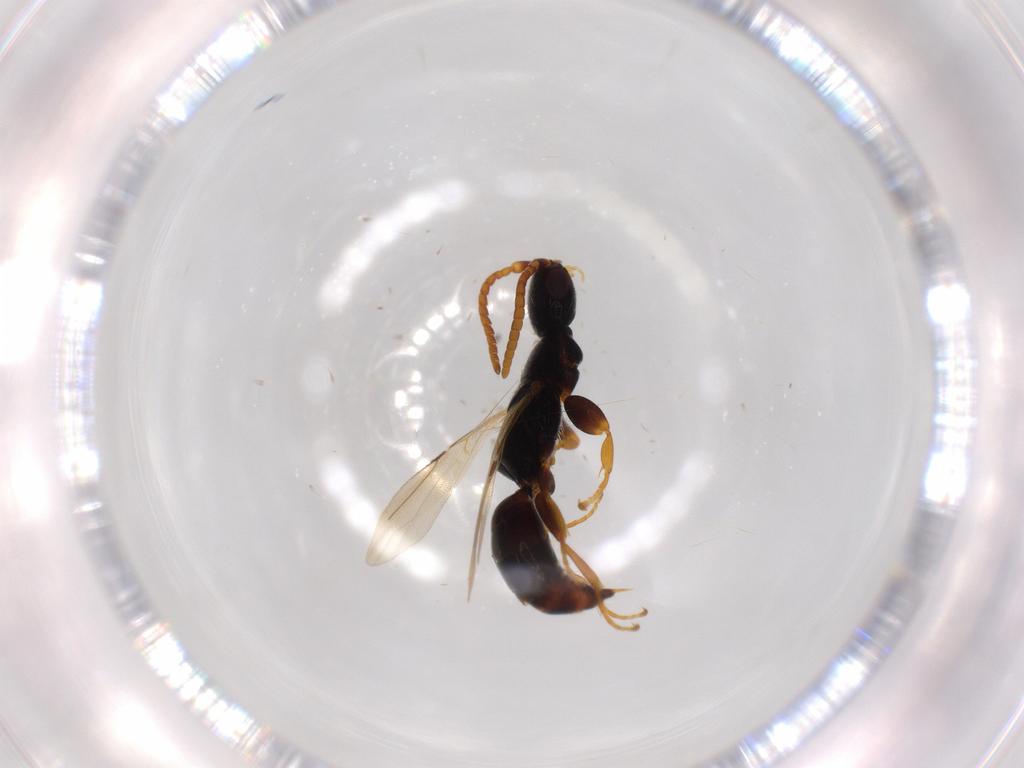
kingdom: Animalia
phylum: Arthropoda
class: Insecta
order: Hymenoptera
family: Bethylidae
